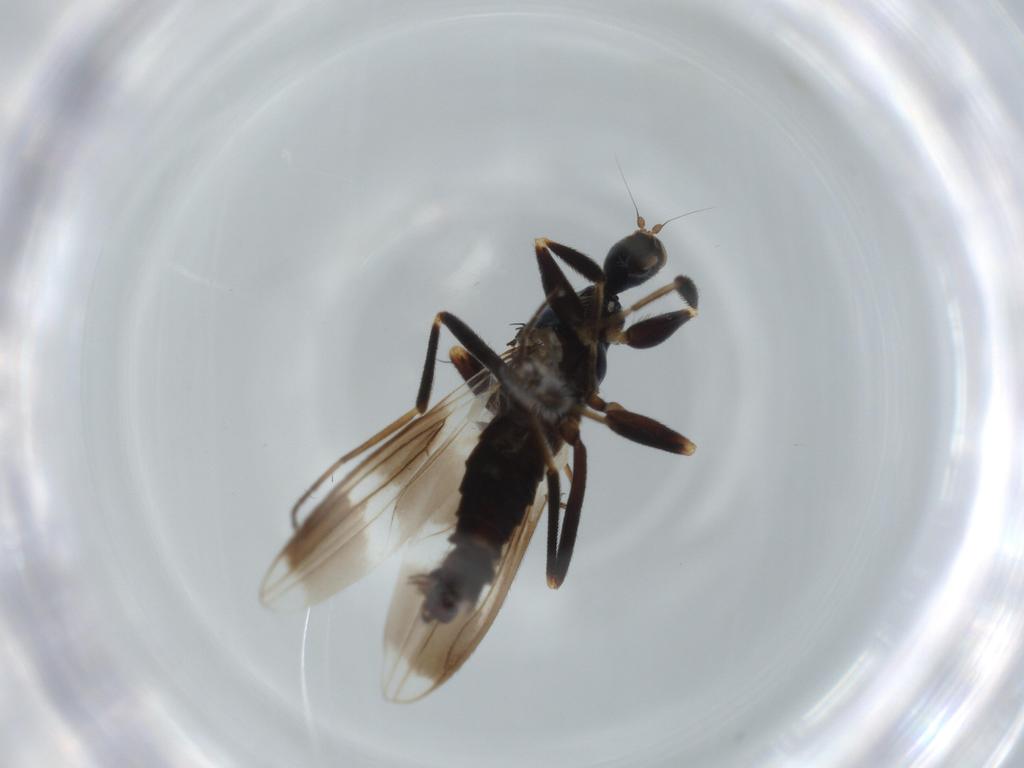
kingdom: Animalia
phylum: Arthropoda
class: Insecta
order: Diptera
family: Hybotidae
